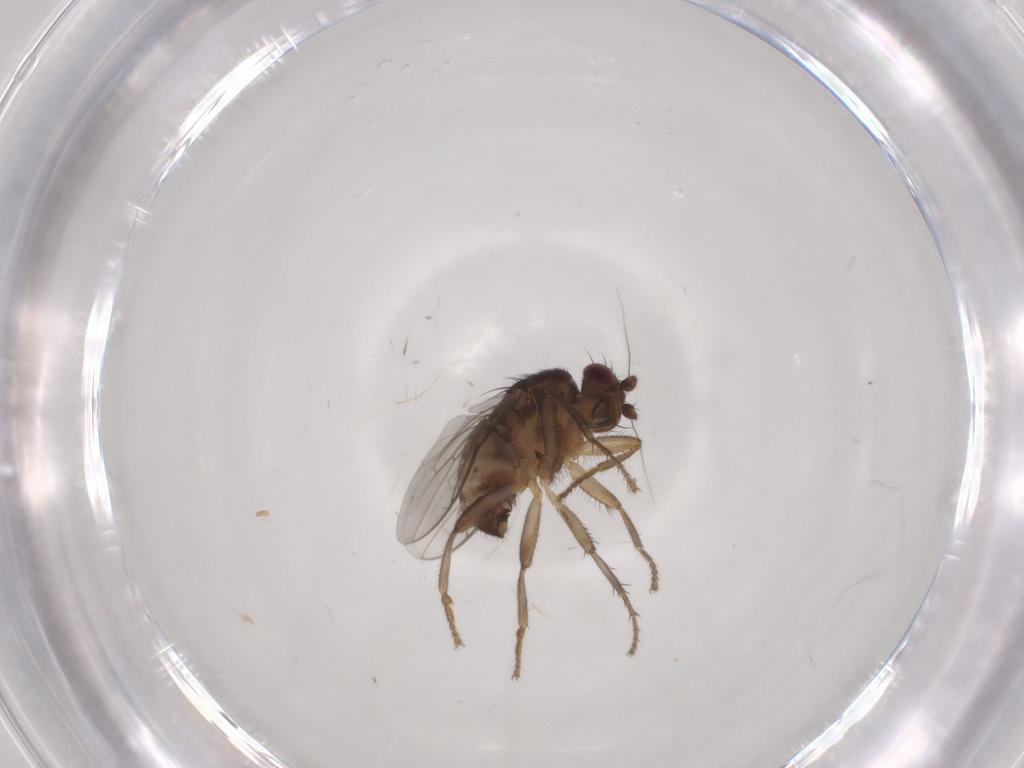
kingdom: Animalia
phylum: Arthropoda
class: Insecta
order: Diptera
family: Sphaeroceridae
